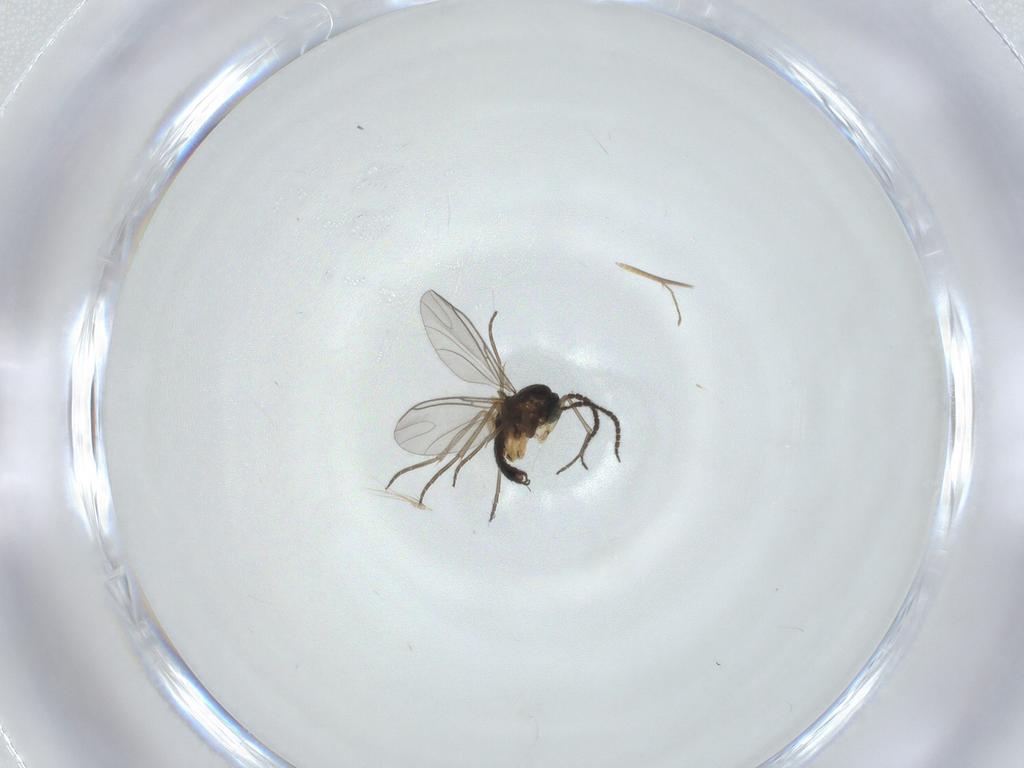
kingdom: Animalia
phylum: Arthropoda
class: Insecta
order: Diptera
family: Sciaridae
